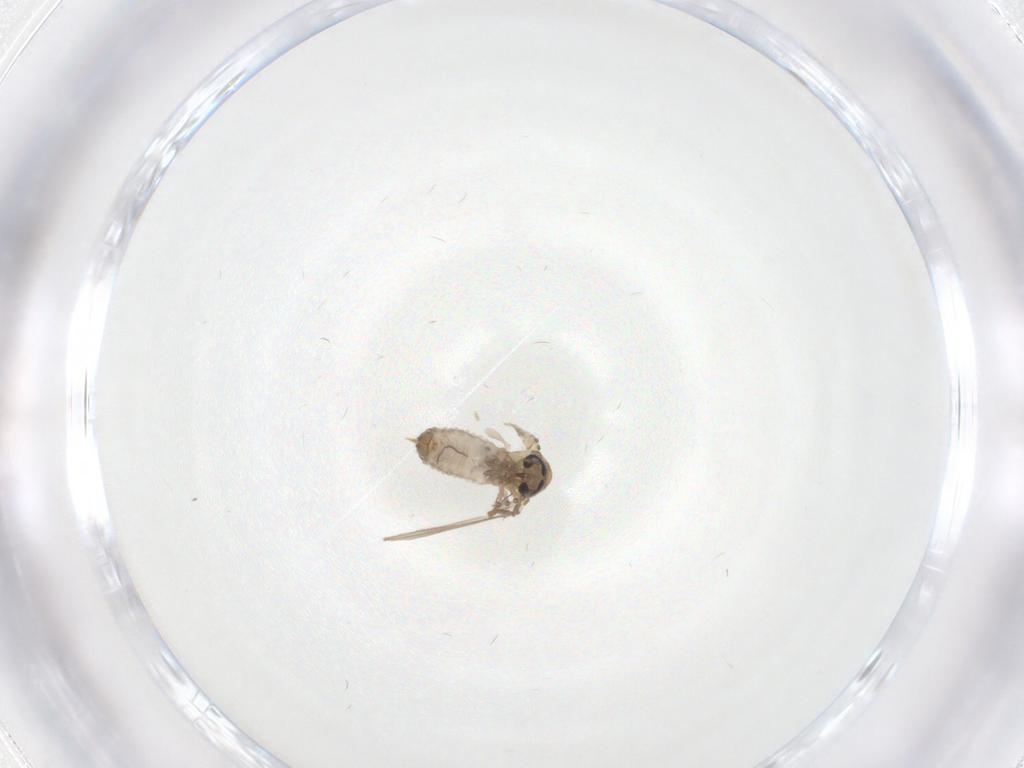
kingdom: Animalia
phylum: Arthropoda
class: Insecta
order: Diptera
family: Psychodidae
